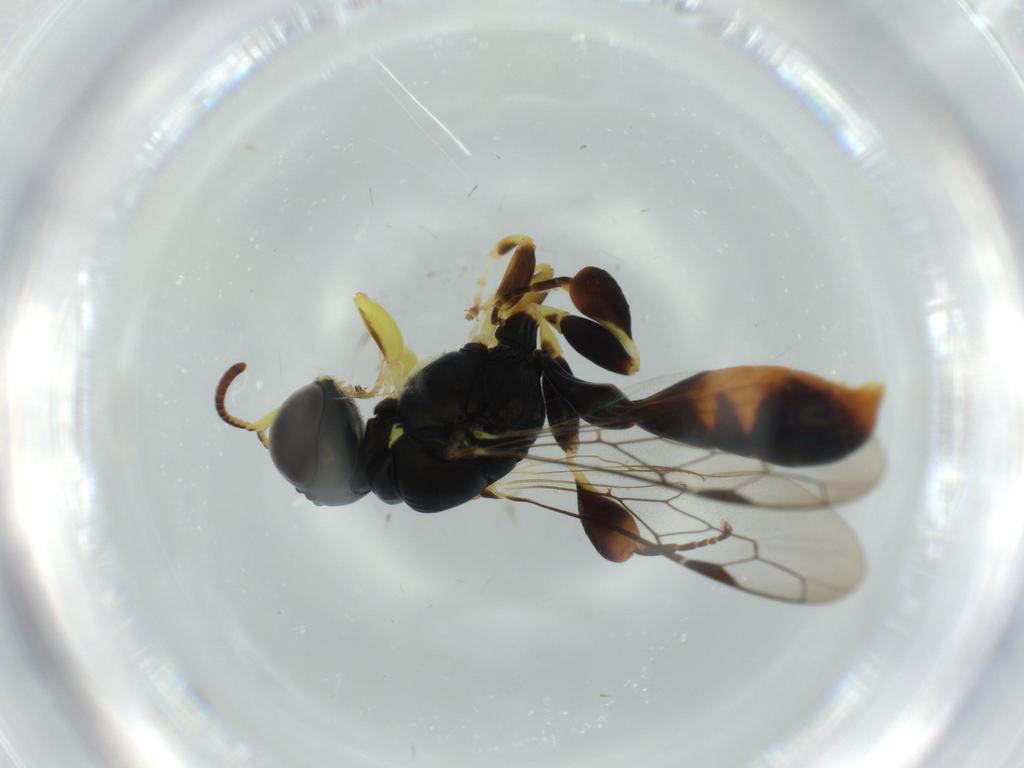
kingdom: Animalia
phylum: Arthropoda
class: Insecta
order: Hymenoptera
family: Crabronidae
